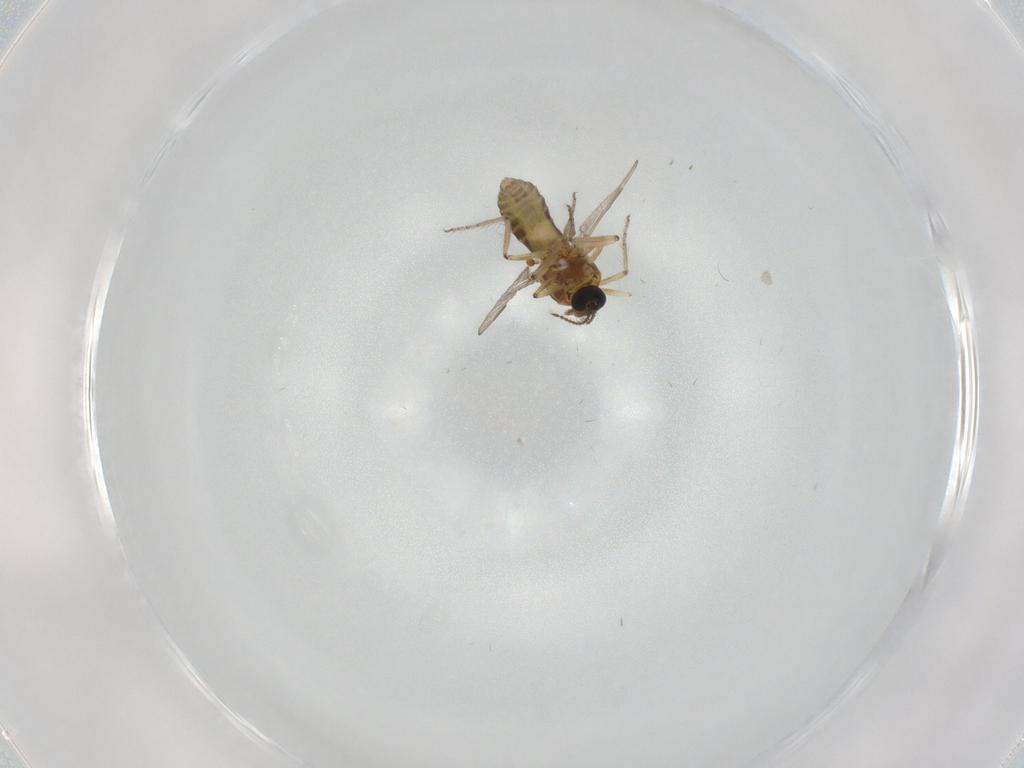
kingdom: Animalia
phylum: Arthropoda
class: Insecta
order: Diptera
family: Ceratopogonidae
